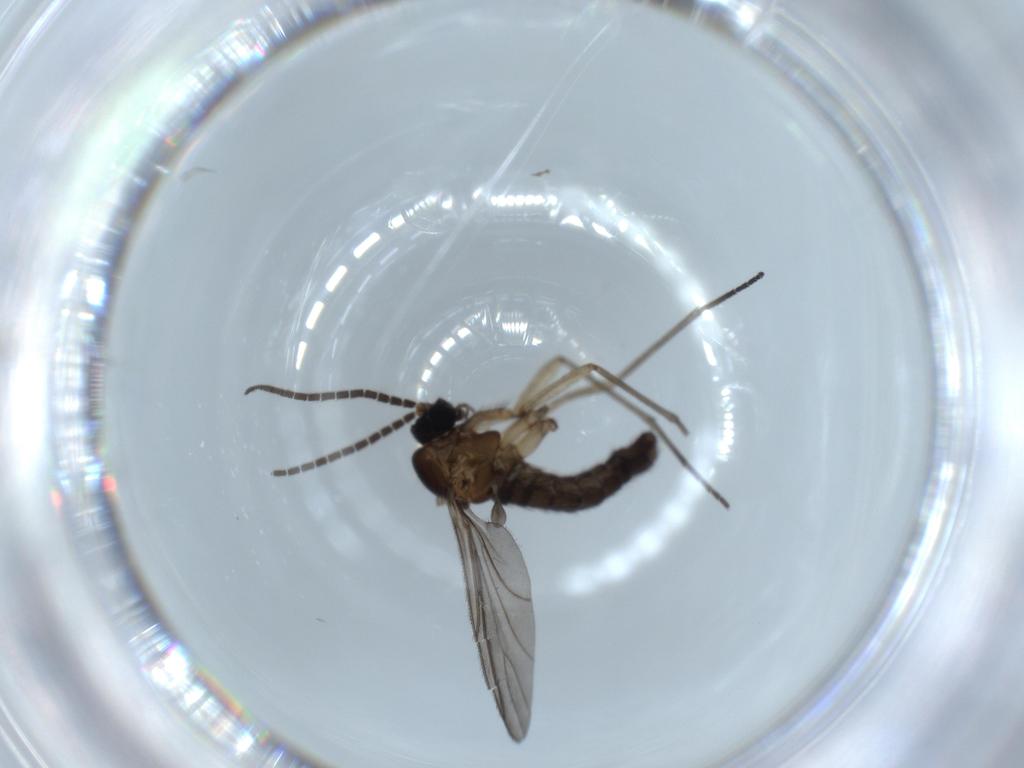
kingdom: Animalia
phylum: Arthropoda
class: Insecta
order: Diptera
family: Sciaridae
